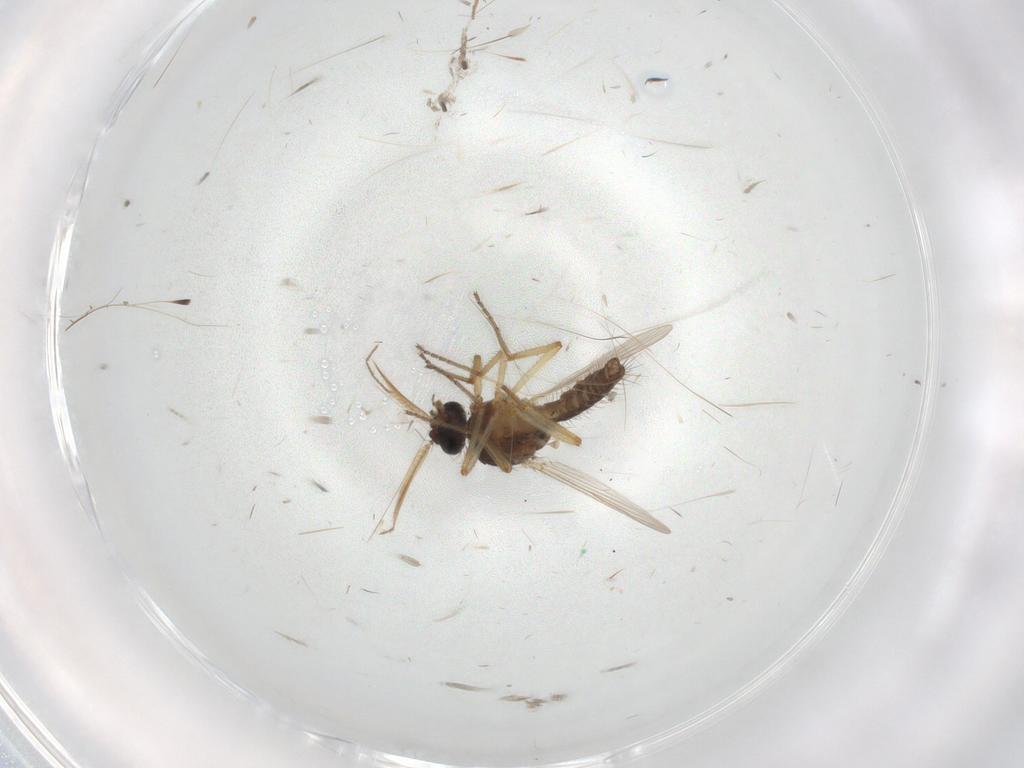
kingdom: Animalia
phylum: Arthropoda
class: Insecta
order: Diptera
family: Ceratopogonidae
